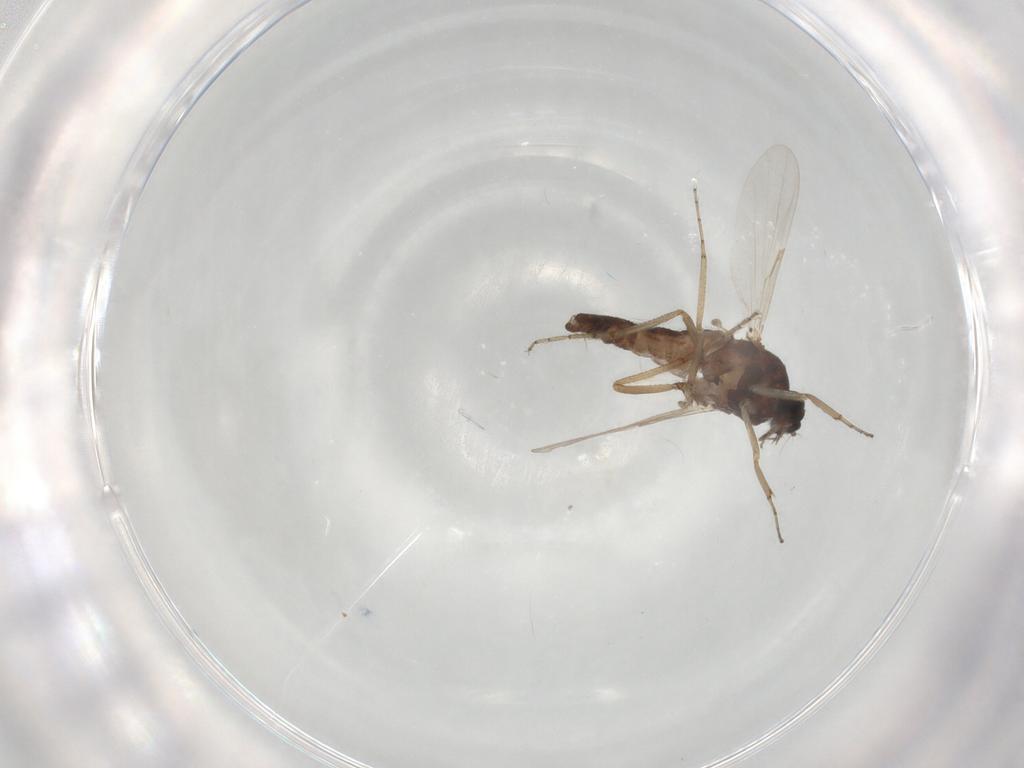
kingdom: Animalia
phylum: Arthropoda
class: Insecta
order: Diptera
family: Ceratopogonidae
